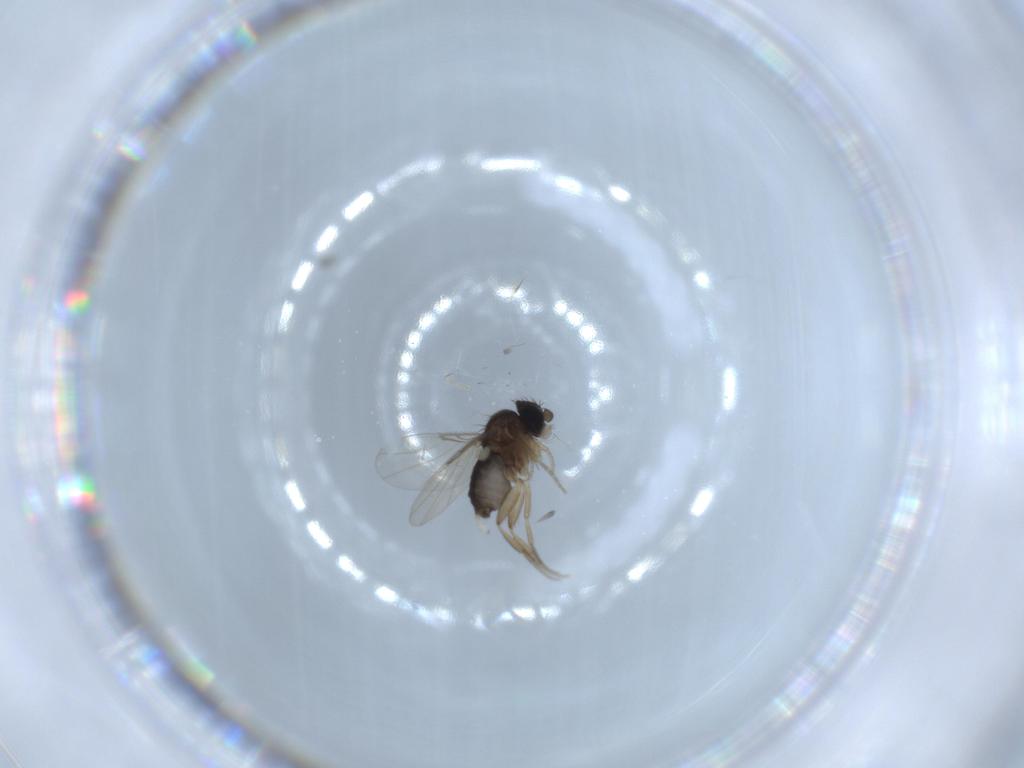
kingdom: Animalia
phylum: Arthropoda
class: Insecta
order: Diptera
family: Phoridae
